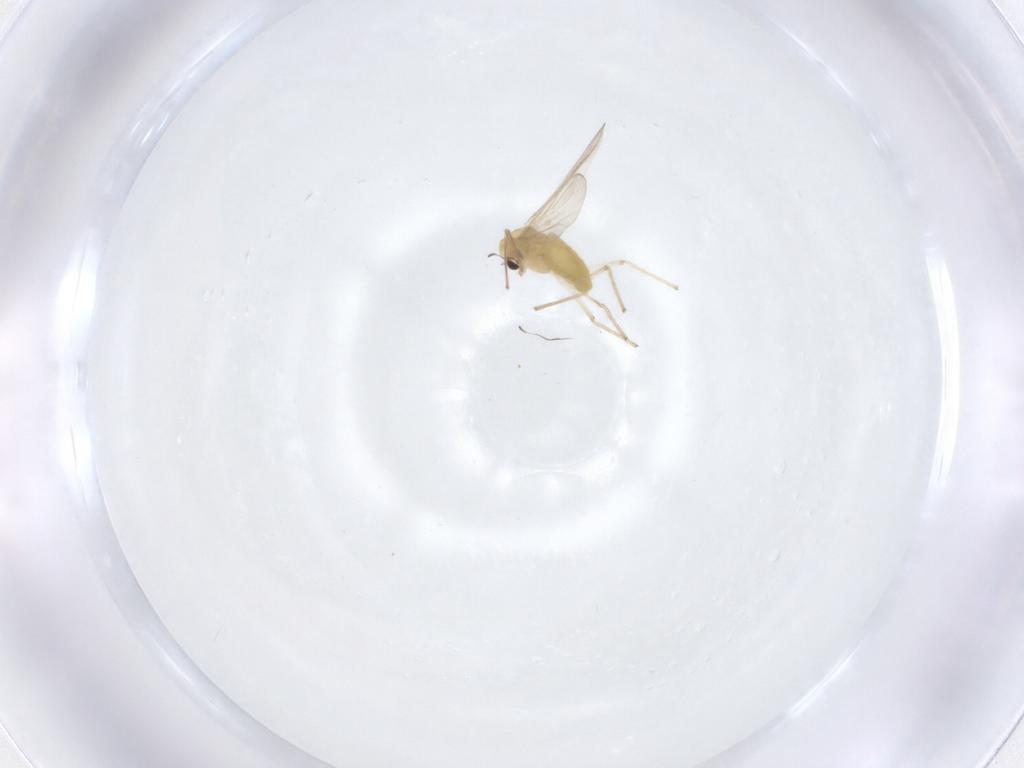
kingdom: Animalia
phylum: Arthropoda
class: Insecta
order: Diptera
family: Chironomidae
